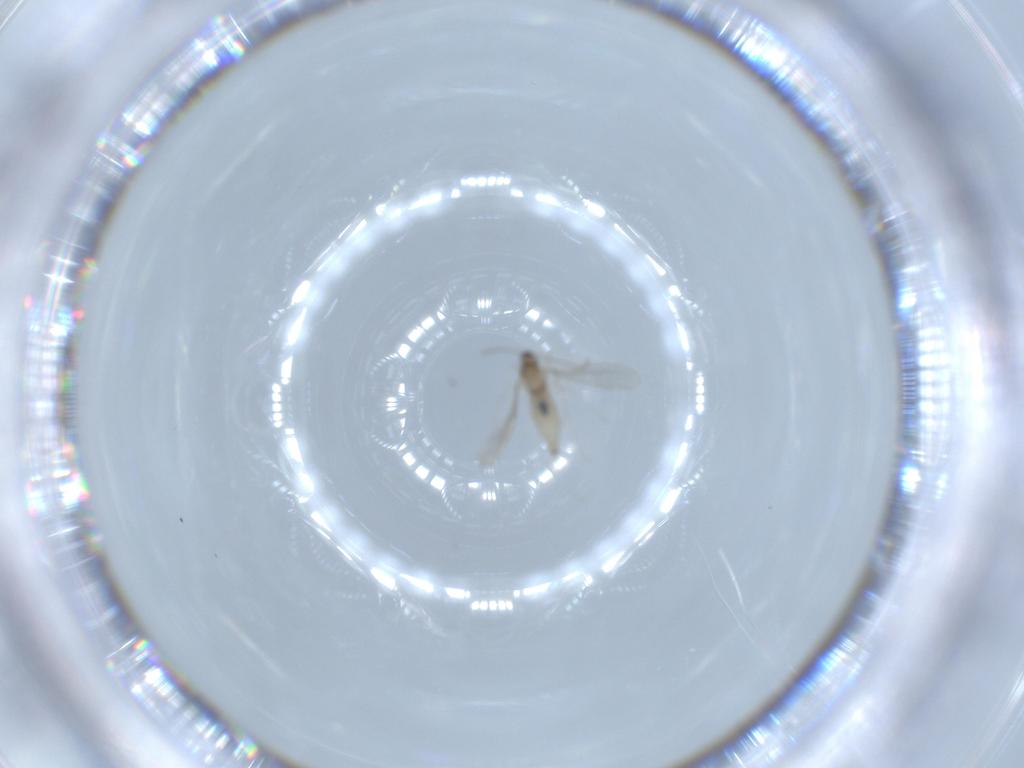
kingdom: Animalia
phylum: Arthropoda
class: Insecta
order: Diptera
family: Cecidomyiidae
